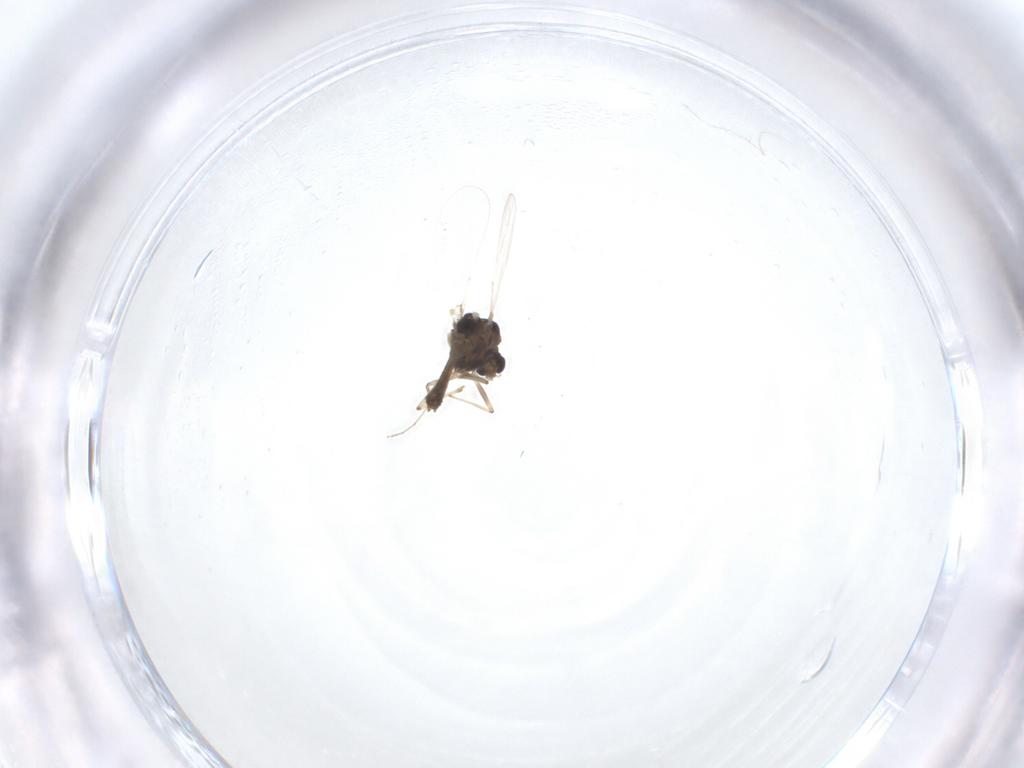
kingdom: Animalia
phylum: Arthropoda
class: Insecta
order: Diptera
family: Chironomidae
